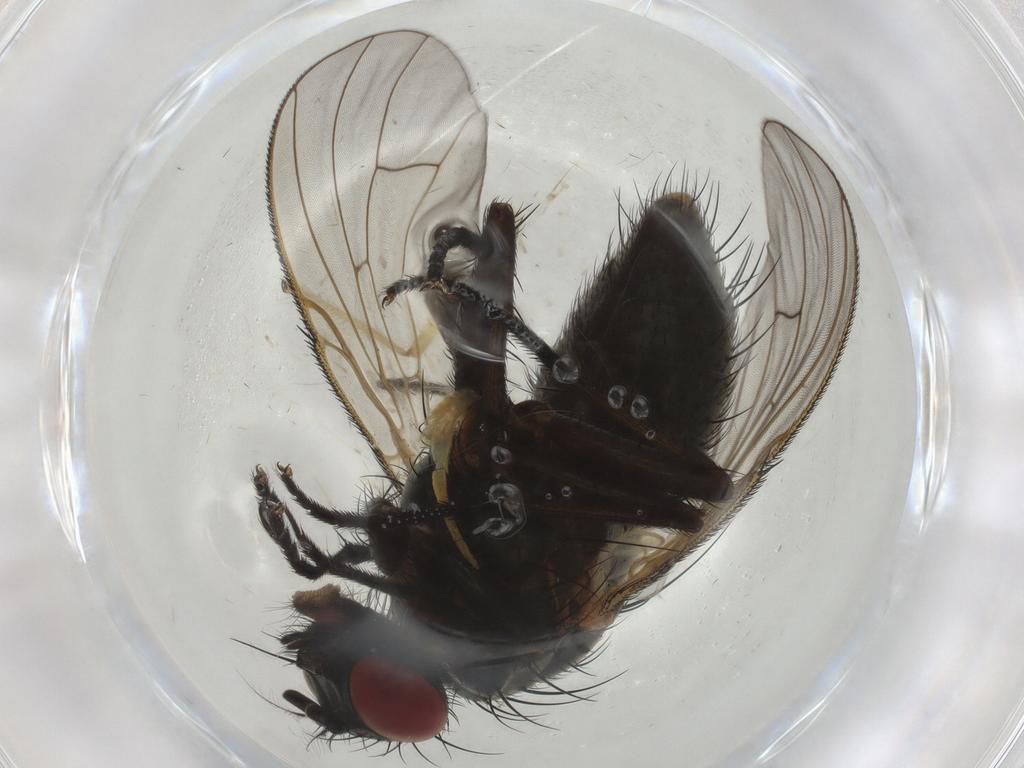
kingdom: Animalia
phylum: Arthropoda
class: Insecta
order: Diptera
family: Muscidae
